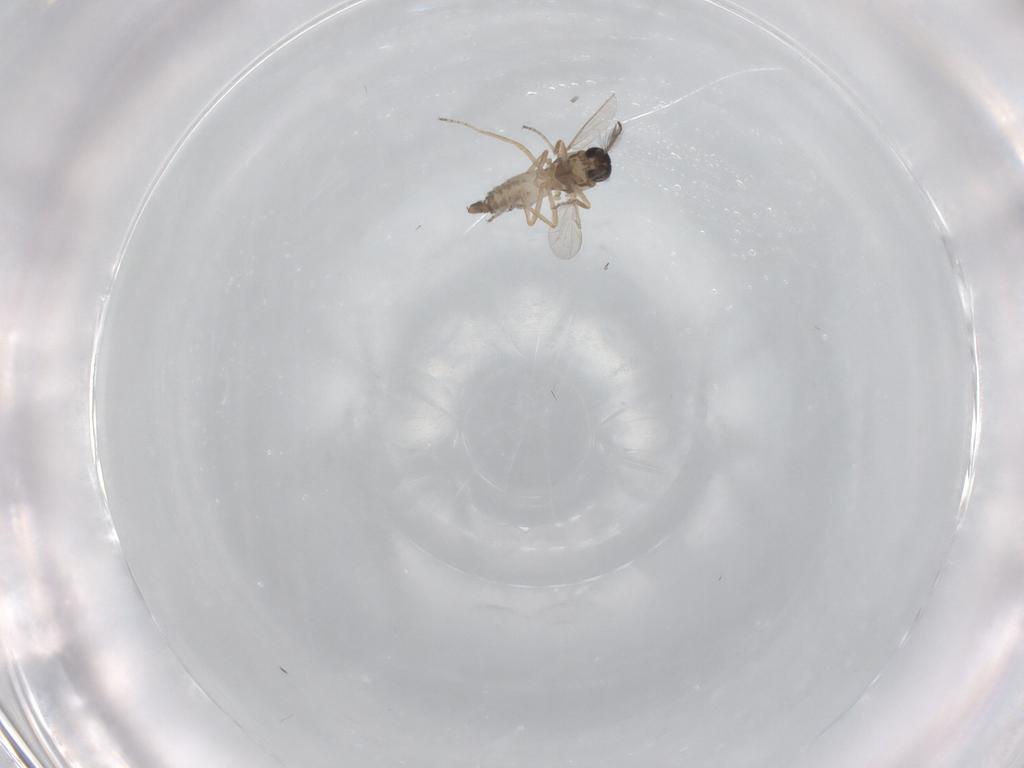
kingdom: Animalia
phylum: Arthropoda
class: Insecta
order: Diptera
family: Ceratopogonidae
